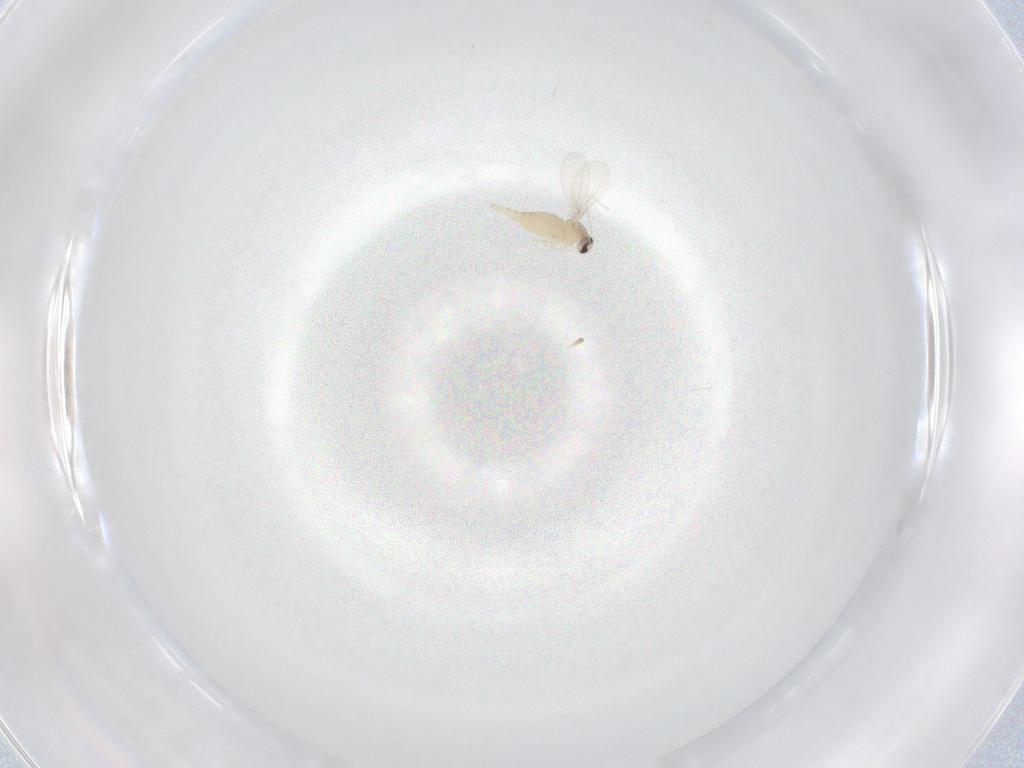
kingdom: Animalia
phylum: Arthropoda
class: Insecta
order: Diptera
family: Cecidomyiidae
